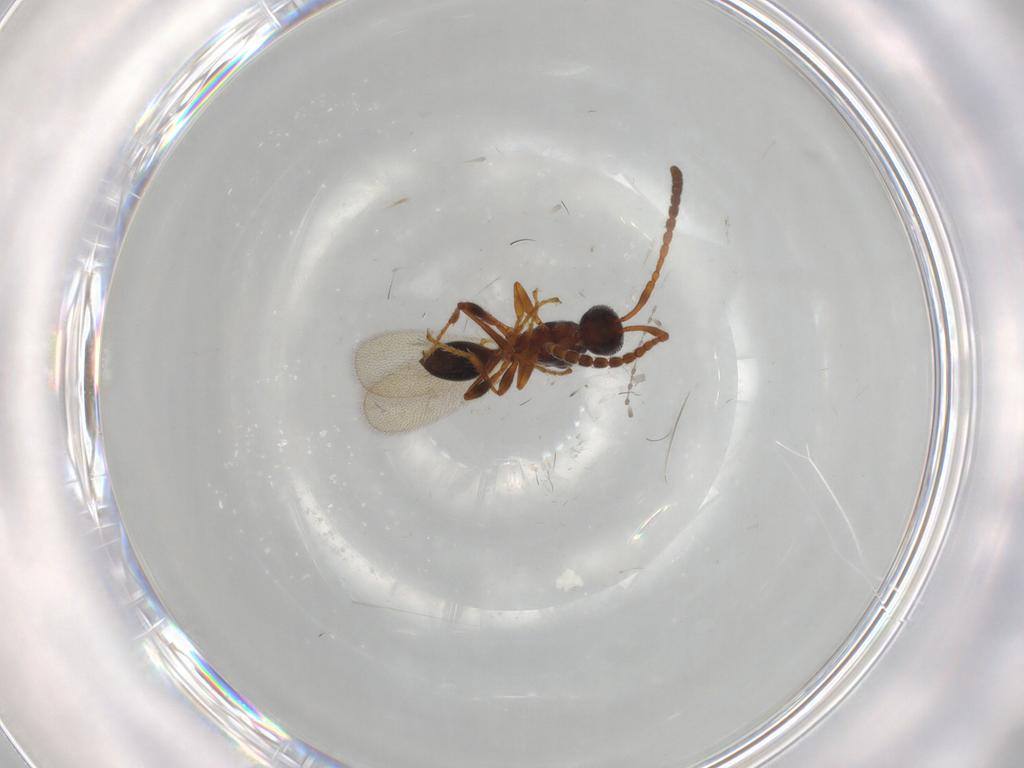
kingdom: Animalia
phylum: Arthropoda
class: Insecta
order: Hymenoptera
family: Diapriidae
